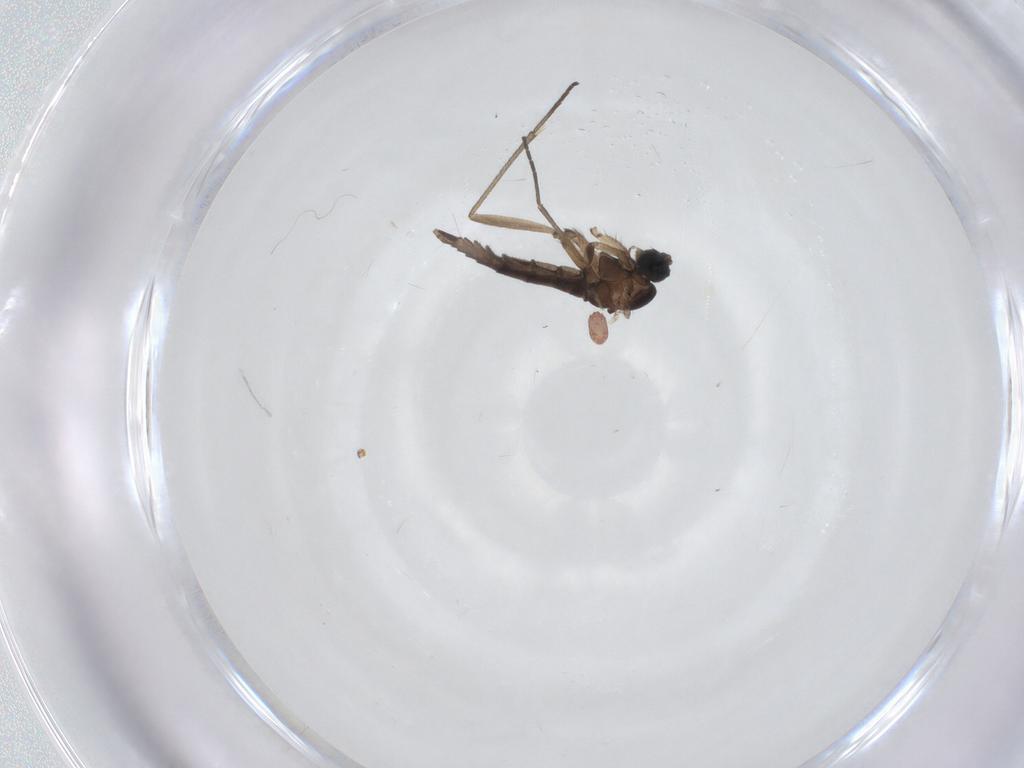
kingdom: Animalia
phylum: Arthropoda
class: Insecta
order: Diptera
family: Sciaridae
